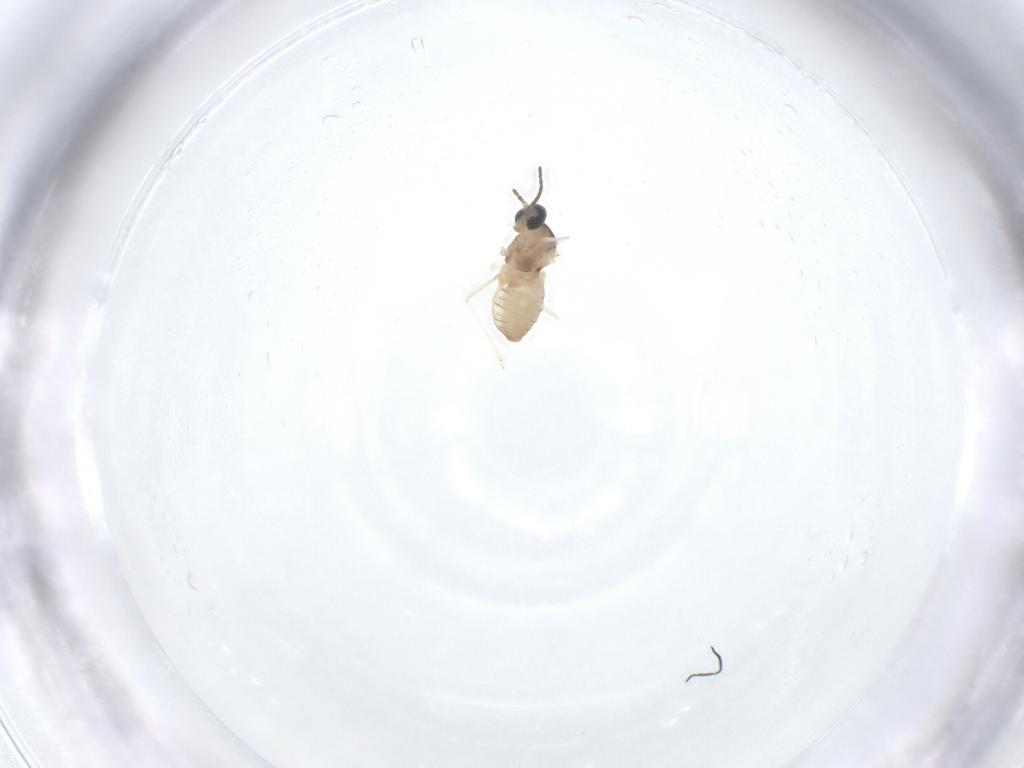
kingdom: Animalia
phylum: Arthropoda
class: Insecta
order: Diptera
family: Cecidomyiidae
